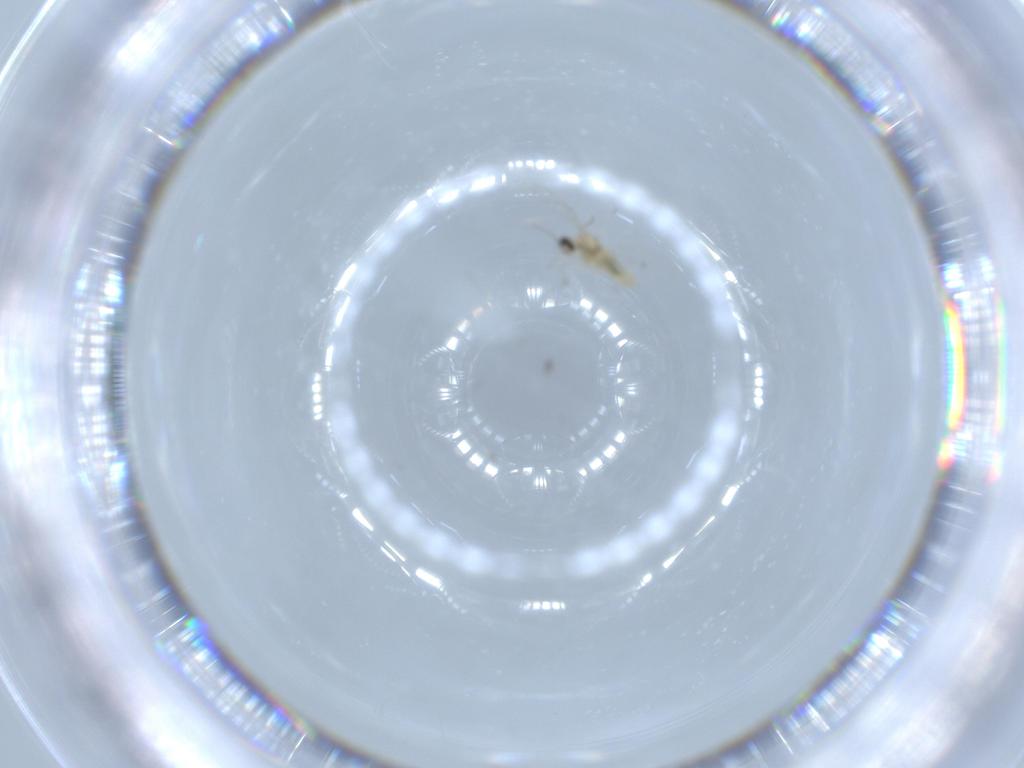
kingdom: Animalia
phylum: Arthropoda
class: Insecta
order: Diptera
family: Cecidomyiidae
